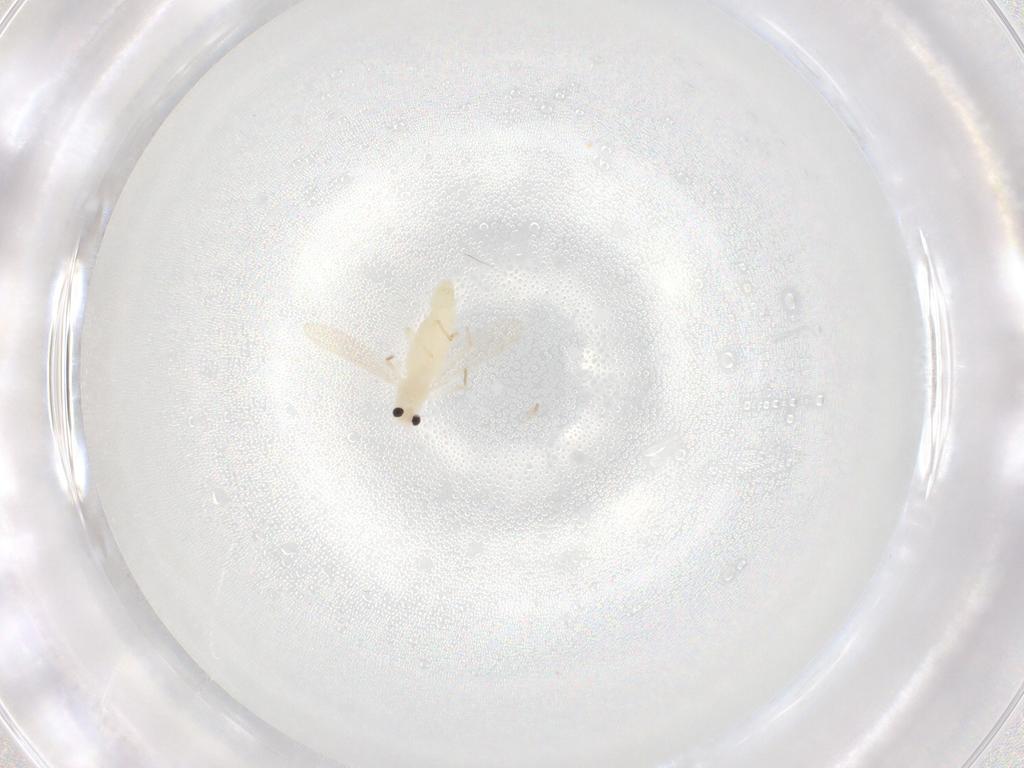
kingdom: Animalia
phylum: Arthropoda
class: Insecta
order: Diptera
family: Chironomidae
